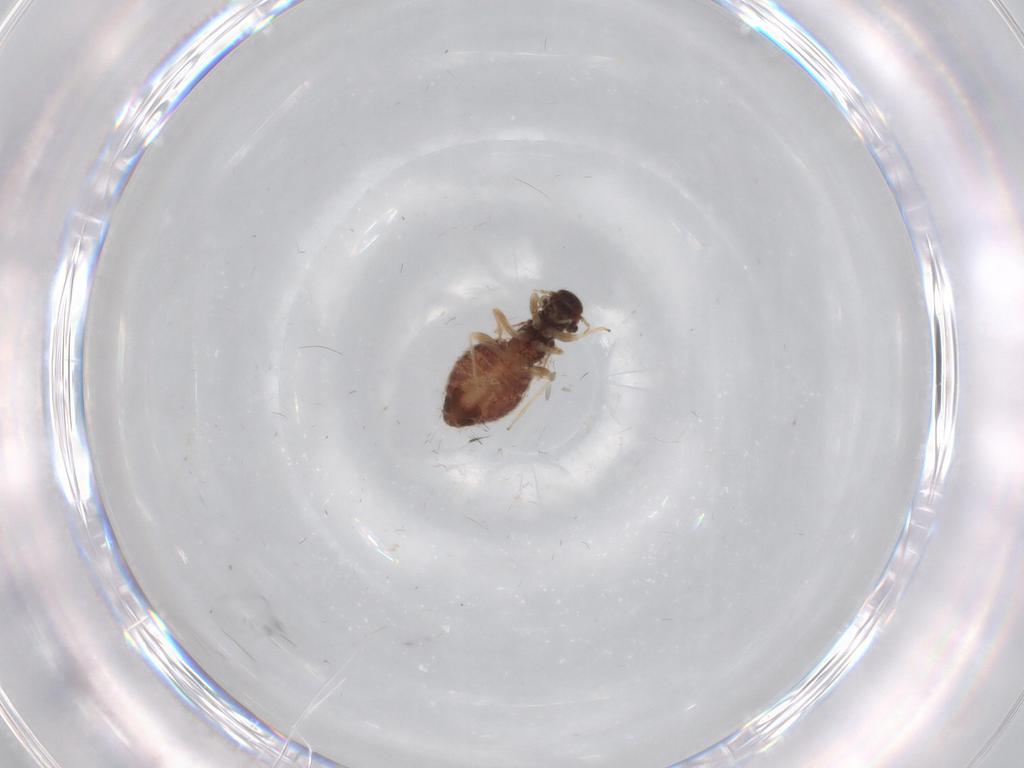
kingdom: Animalia
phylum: Arthropoda
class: Insecta
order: Psocodea
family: Archipsocidae
